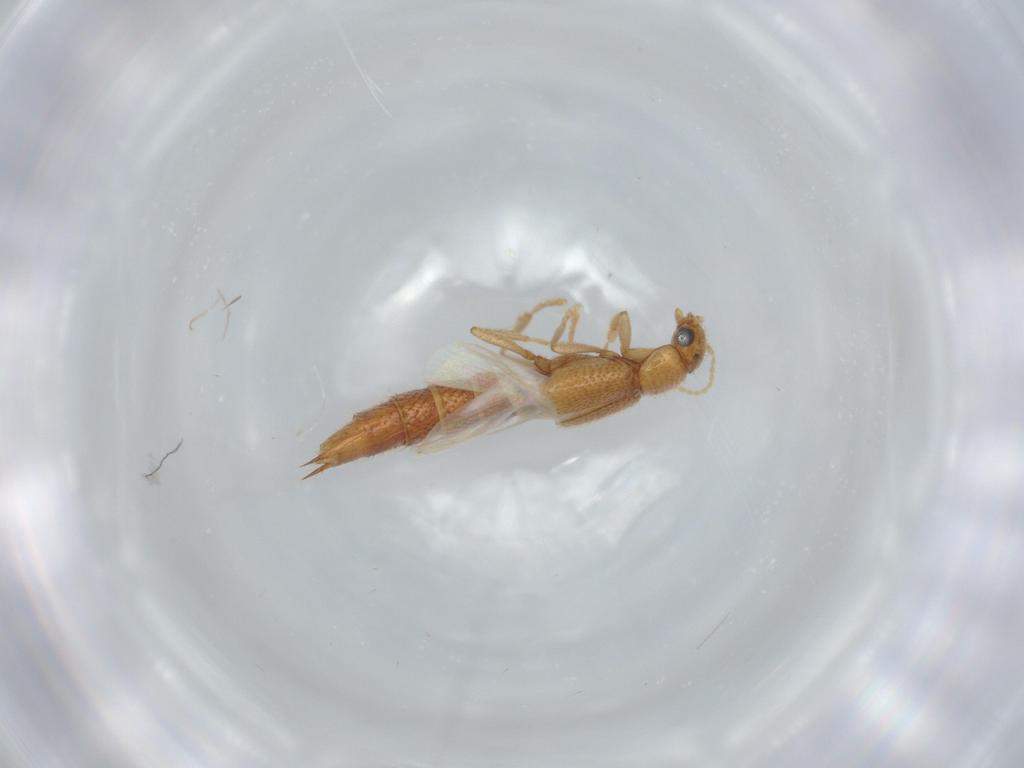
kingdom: Animalia
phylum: Arthropoda
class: Insecta
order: Coleoptera
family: Staphylinidae
